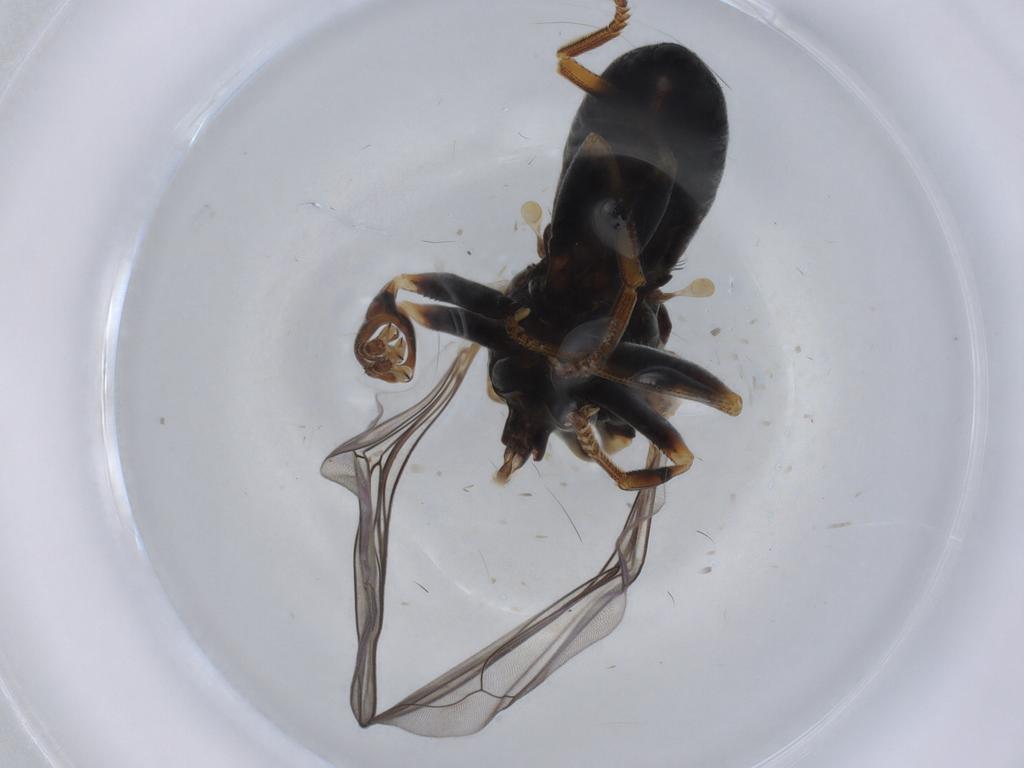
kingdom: Animalia
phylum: Arthropoda
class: Insecta
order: Diptera
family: Pipunculidae
